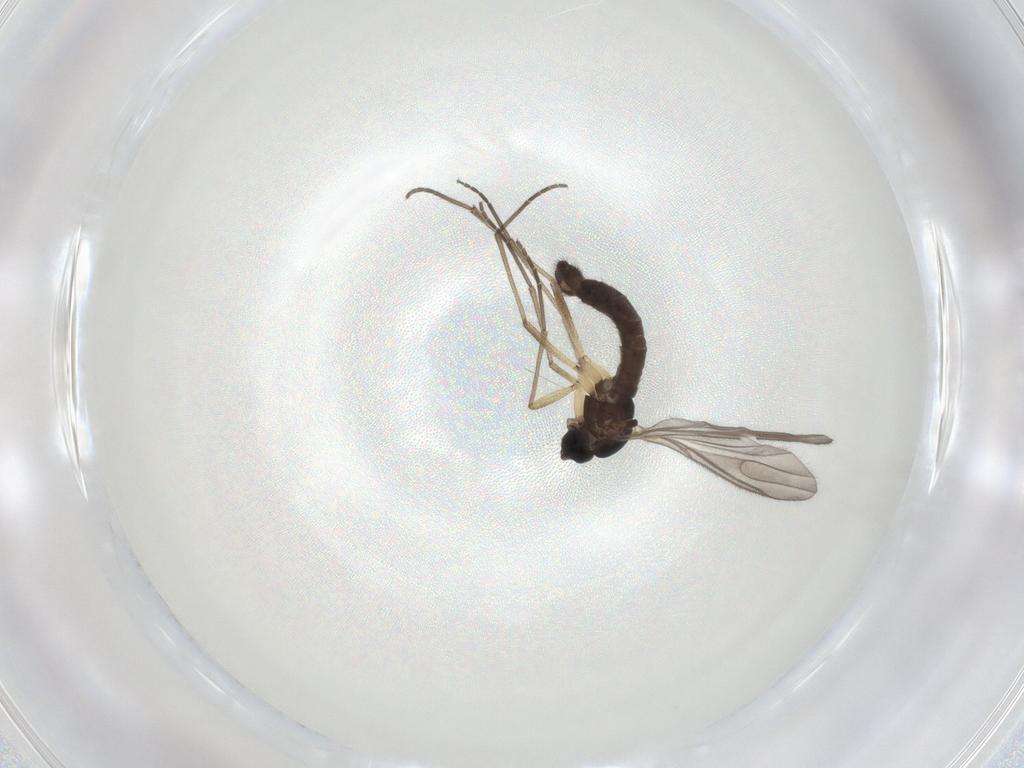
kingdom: Animalia
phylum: Arthropoda
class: Insecta
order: Diptera
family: Sciaridae
